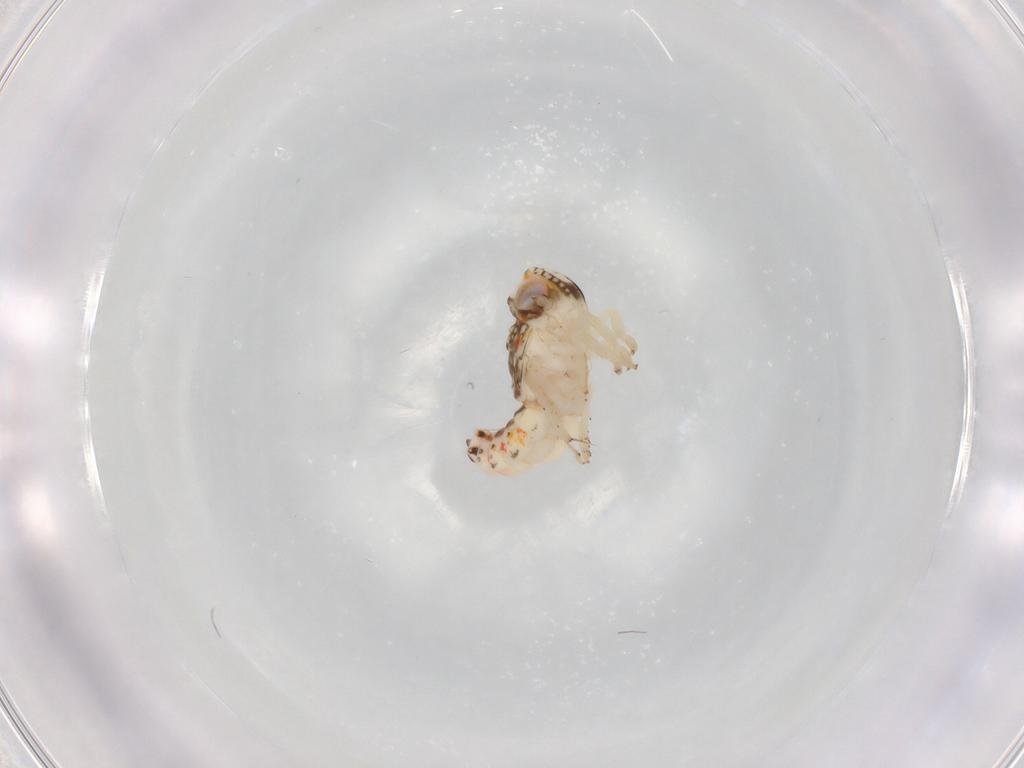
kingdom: Animalia
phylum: Arthropoda
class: Insecta
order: Hemiptera
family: Nogodinidae
